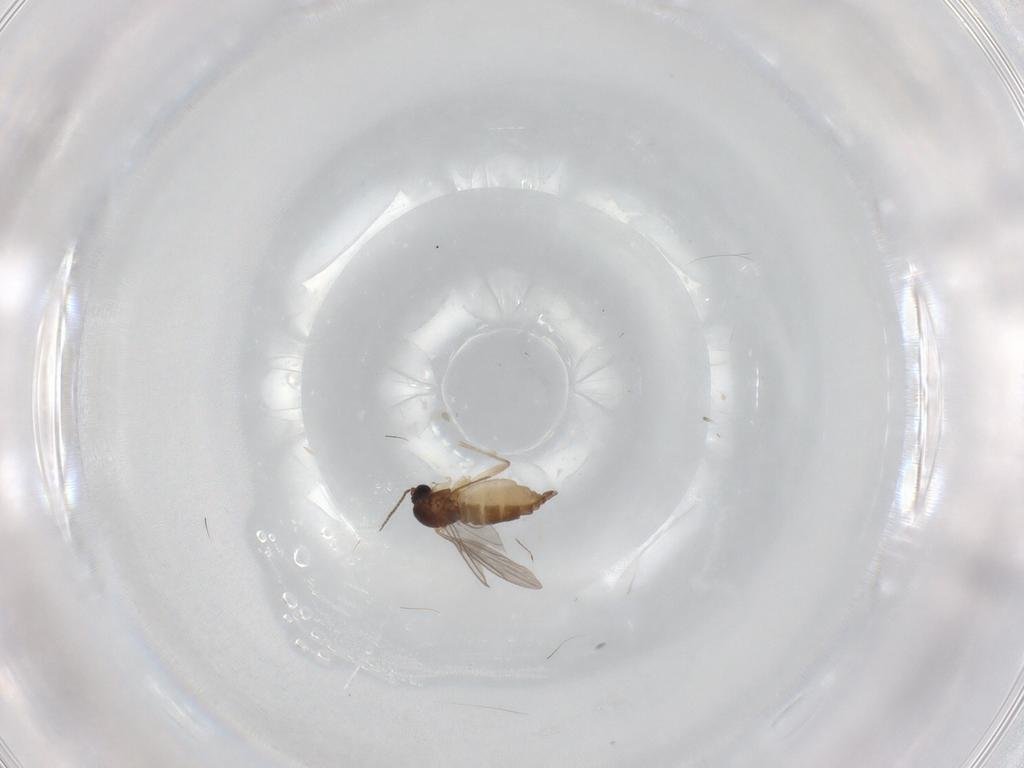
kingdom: Animalia
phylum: Arthropoda
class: Insecta
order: Diptera
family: Sciaridae
